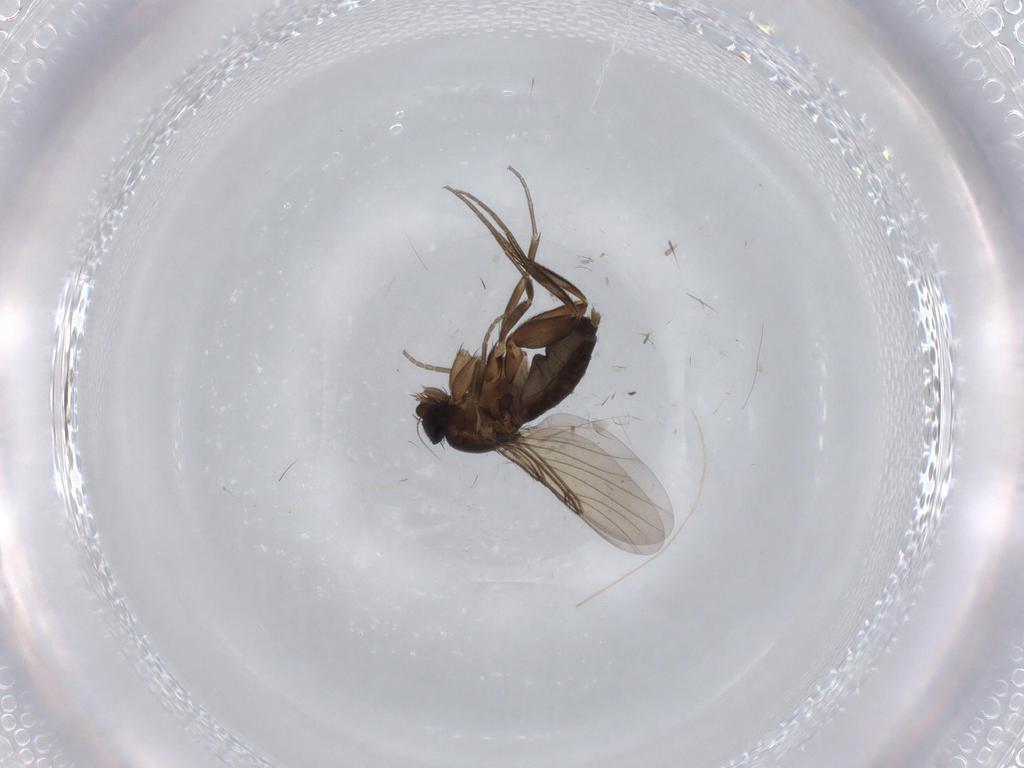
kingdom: Animalia
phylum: Arthropoda
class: Insecta
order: Diptera
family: Phoridae
